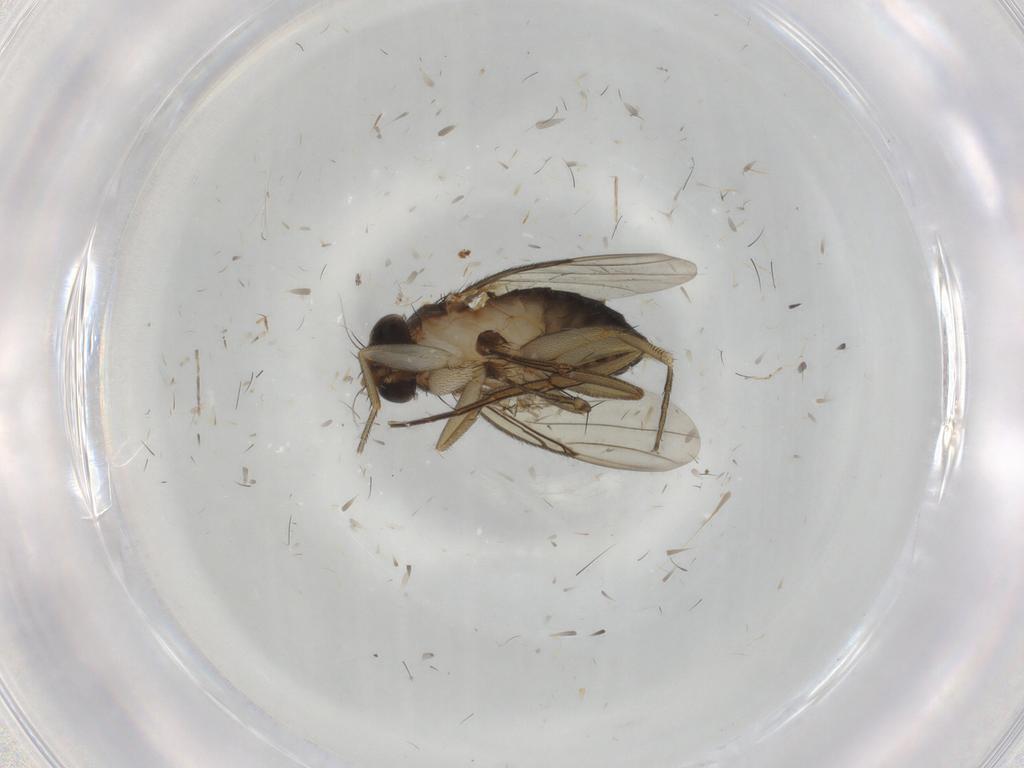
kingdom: Animalia
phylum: Arthropoda
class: Insecta
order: Diptera
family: Phoridae
